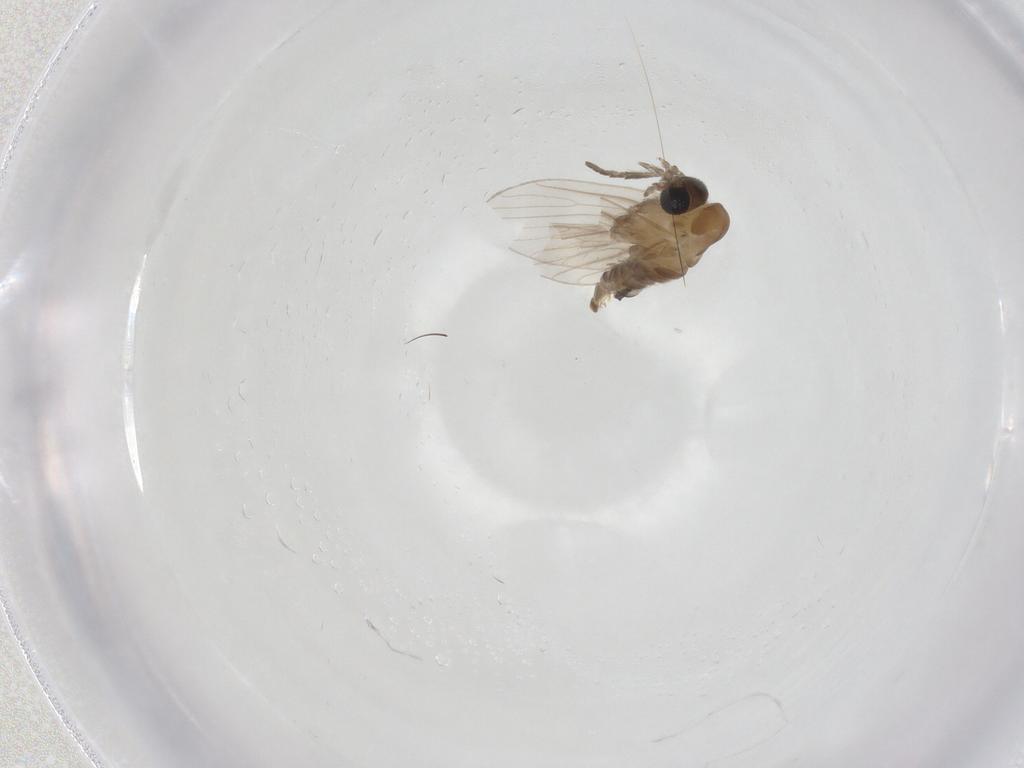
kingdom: Animalia
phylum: Arthropoda
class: Insecta
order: Diptera
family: Psychodidae
